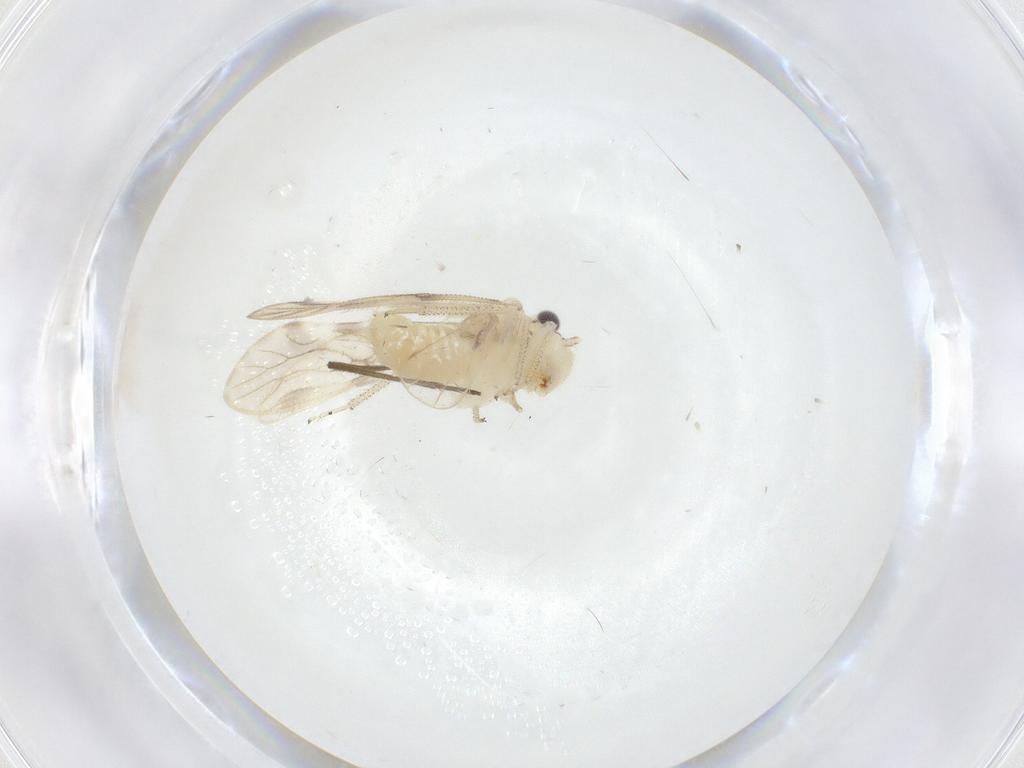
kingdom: Animalia
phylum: Arthropoda
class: Insecta
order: Psocodea
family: Pseudocaeciliidae
